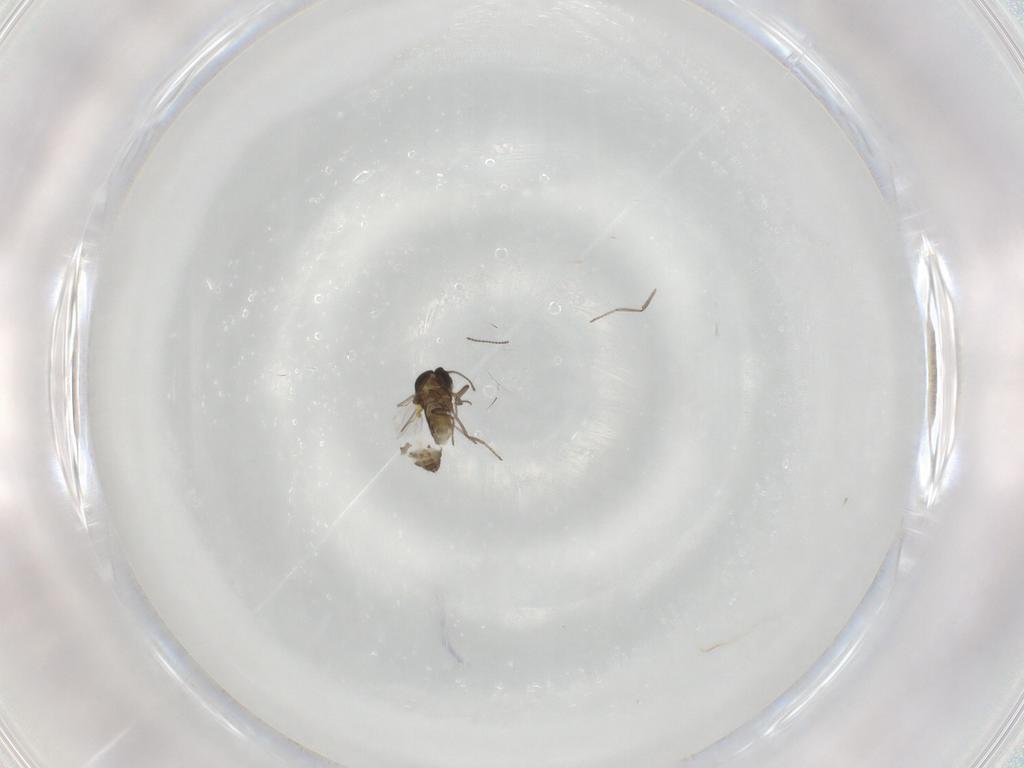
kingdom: Animalia
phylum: Arthropoda
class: Insecta
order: Diptera
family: Ceratopogonidae
